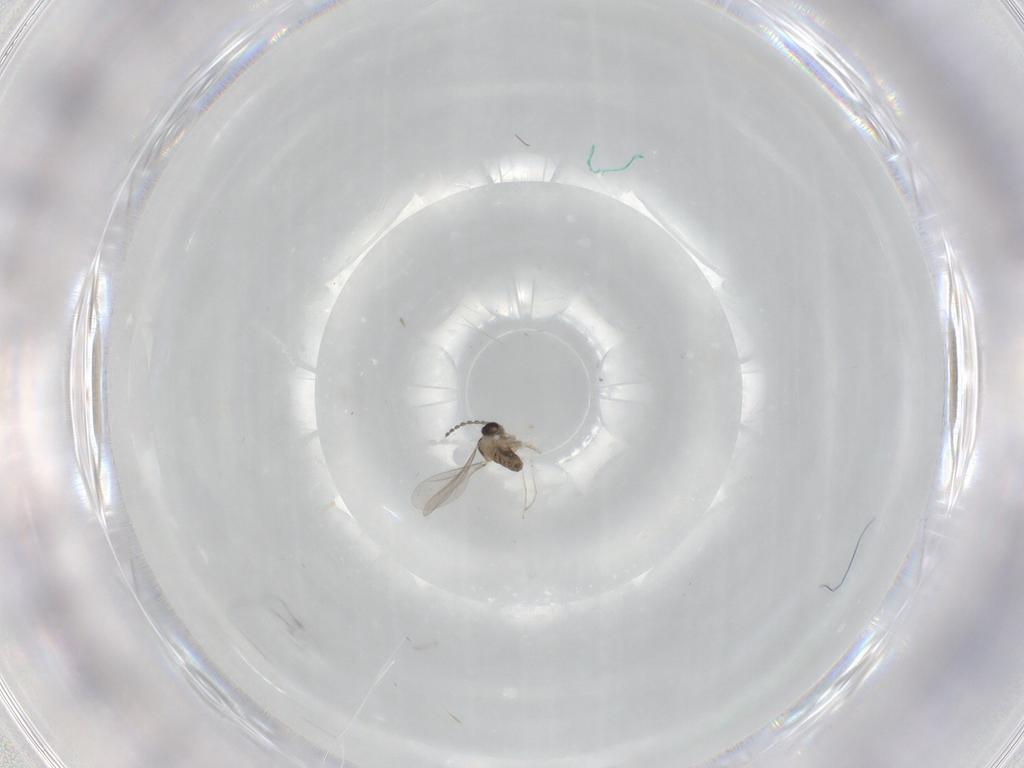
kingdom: Animalia
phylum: Arthropoda
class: Insecta
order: Diptera
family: Cecidomyiidae
